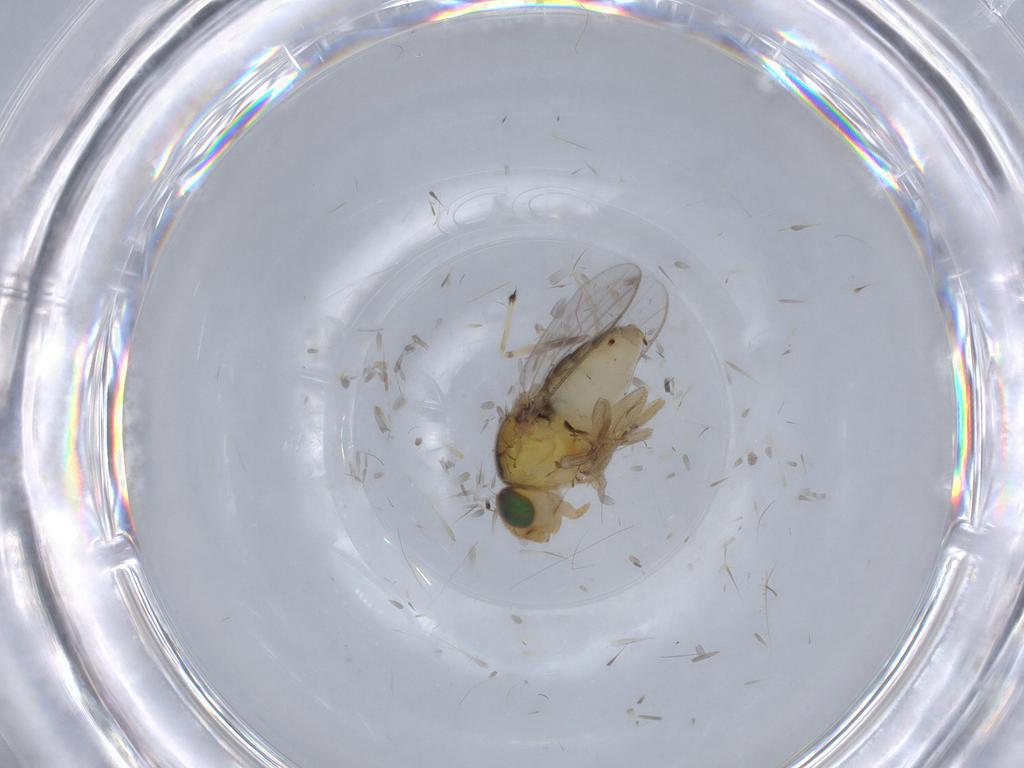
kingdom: Animalia
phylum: Arthropoda
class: Insecta
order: Diptera
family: Chloropidae
